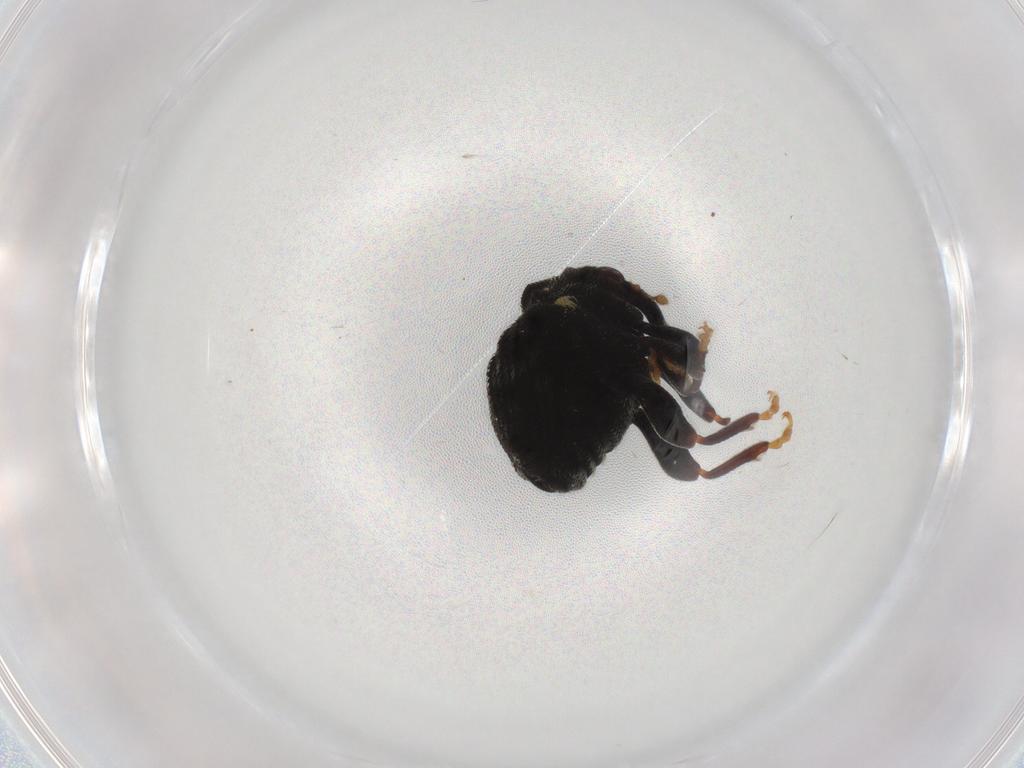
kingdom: Animalia
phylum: Arthropoda
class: Insecta
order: Coleoptera
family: Curculionidae
